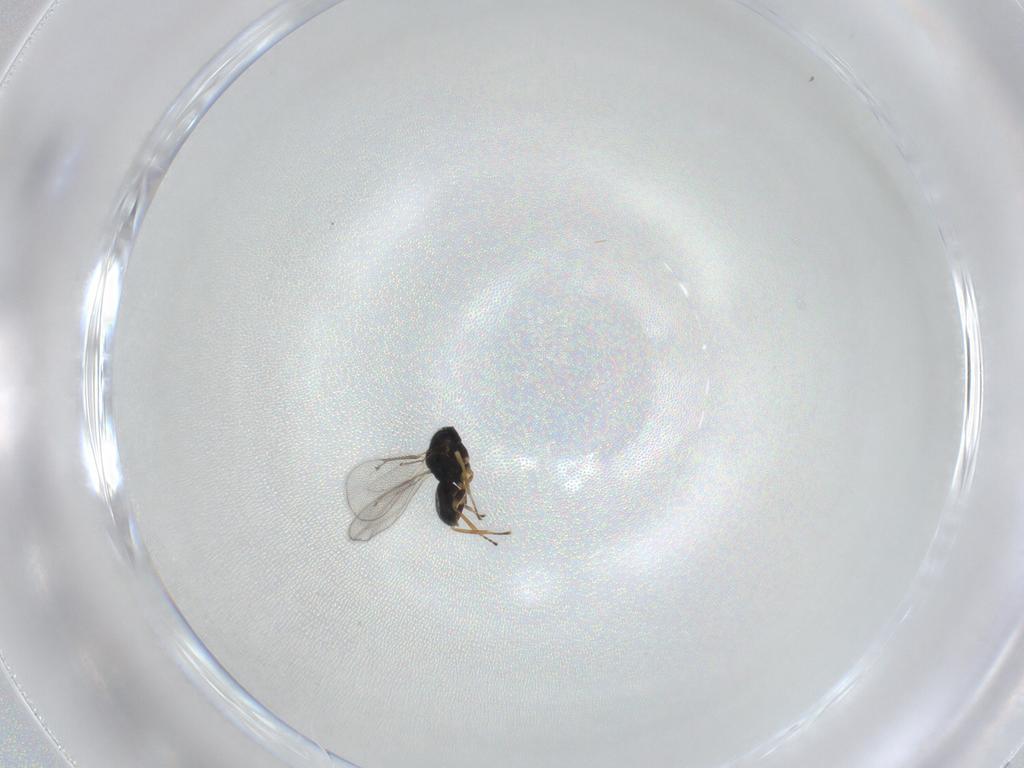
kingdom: Animalia
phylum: Arthropoda
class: Insecta
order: Hymenoptera
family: Eulophidae
